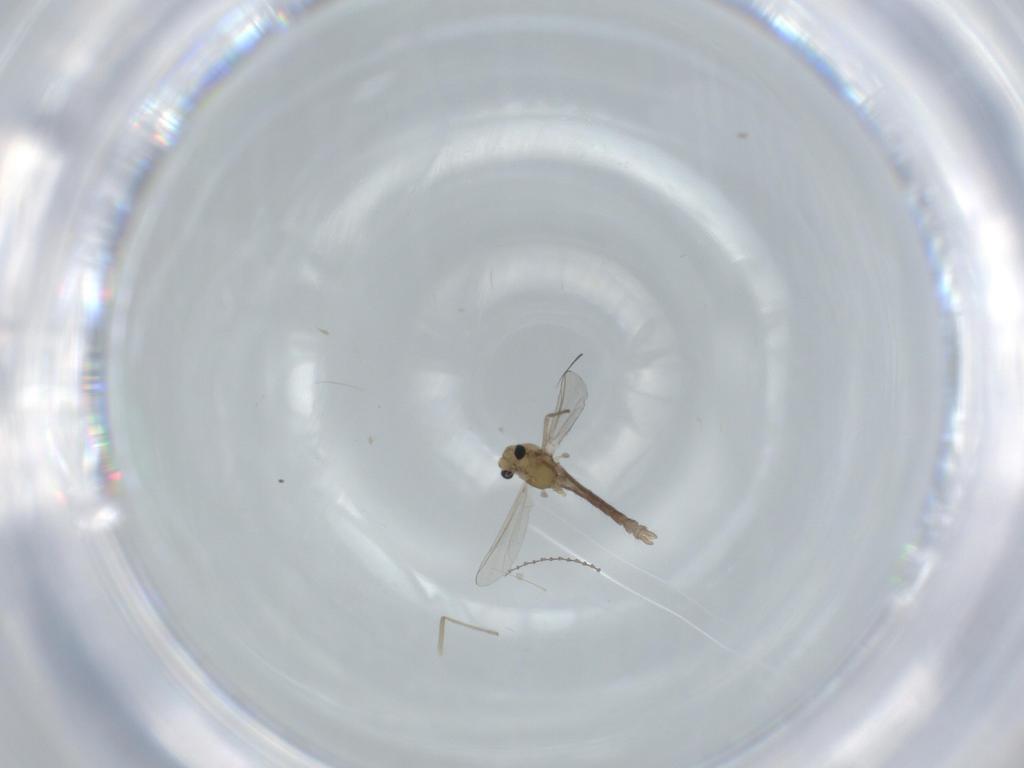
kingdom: Animalia
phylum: Arthropoda
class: Insecta
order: Diptera
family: Cecidomyiidae
